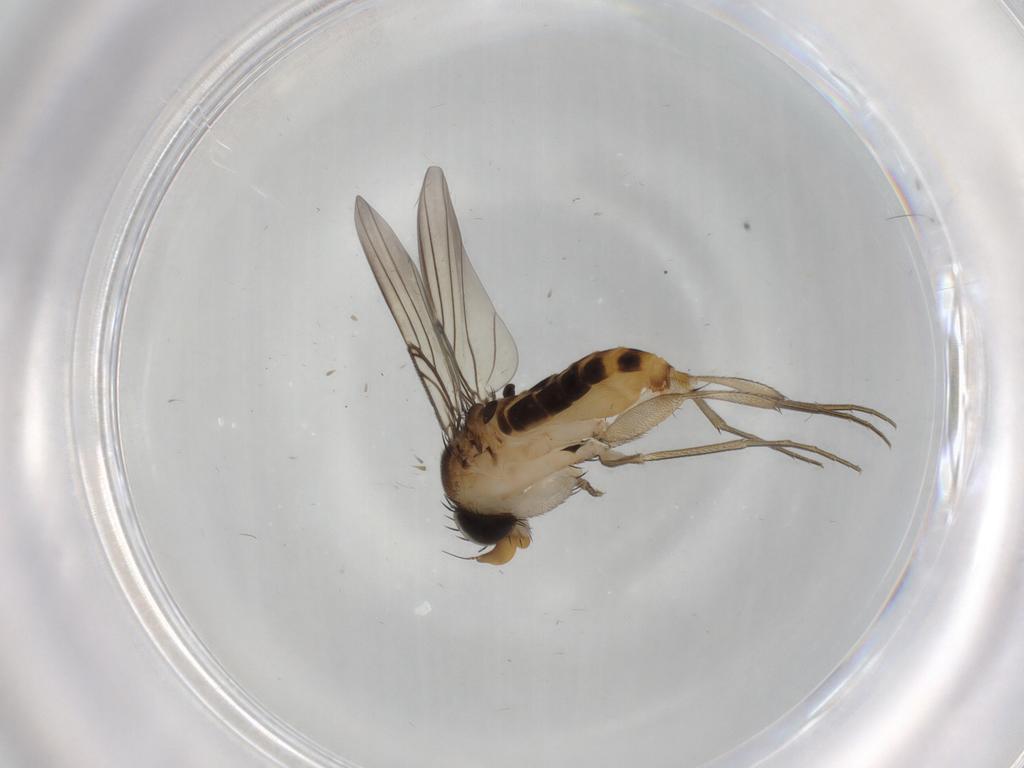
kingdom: Animalia
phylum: Arthropoda
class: Insecta
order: Diptera
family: Phoridae
